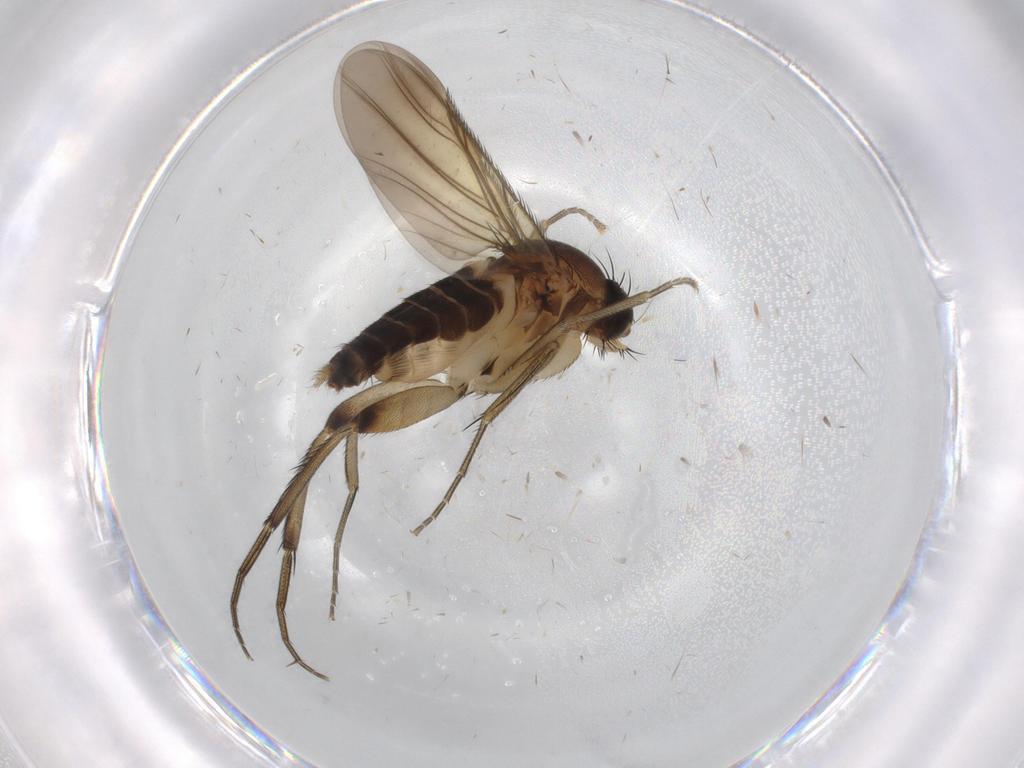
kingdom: Animalia
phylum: Arthropoda
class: Insecta
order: Diptera
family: Phoridae
